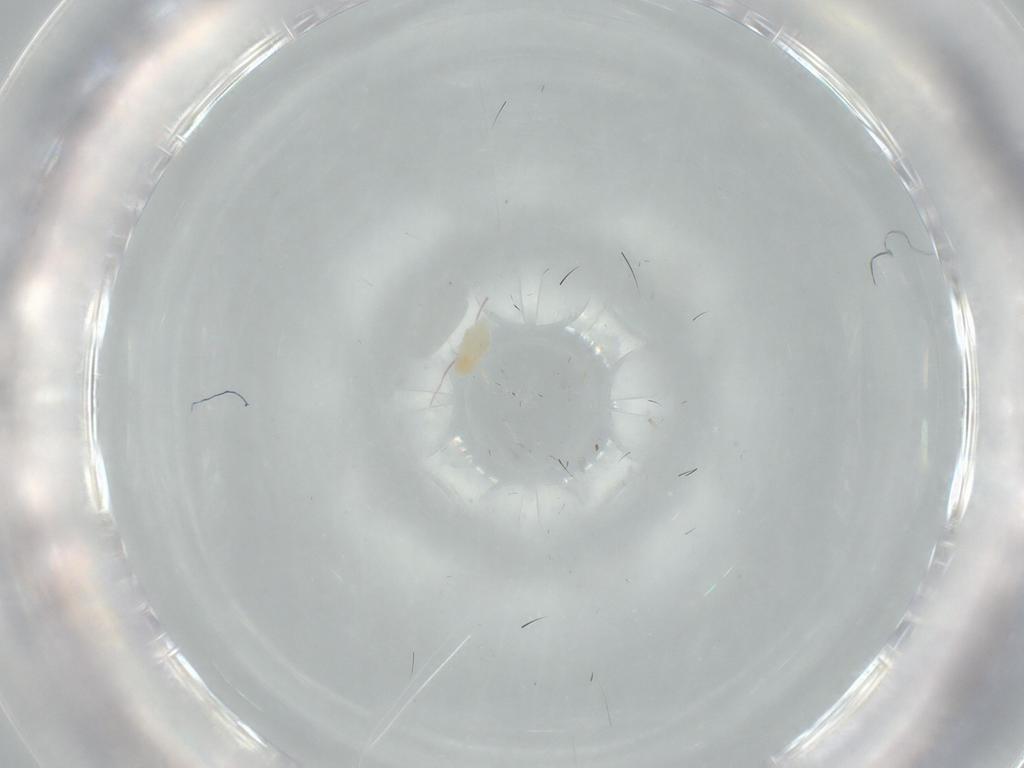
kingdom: Animalia
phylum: Arthropoda
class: Arachnida
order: Trombidiformes
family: Eupodidae
